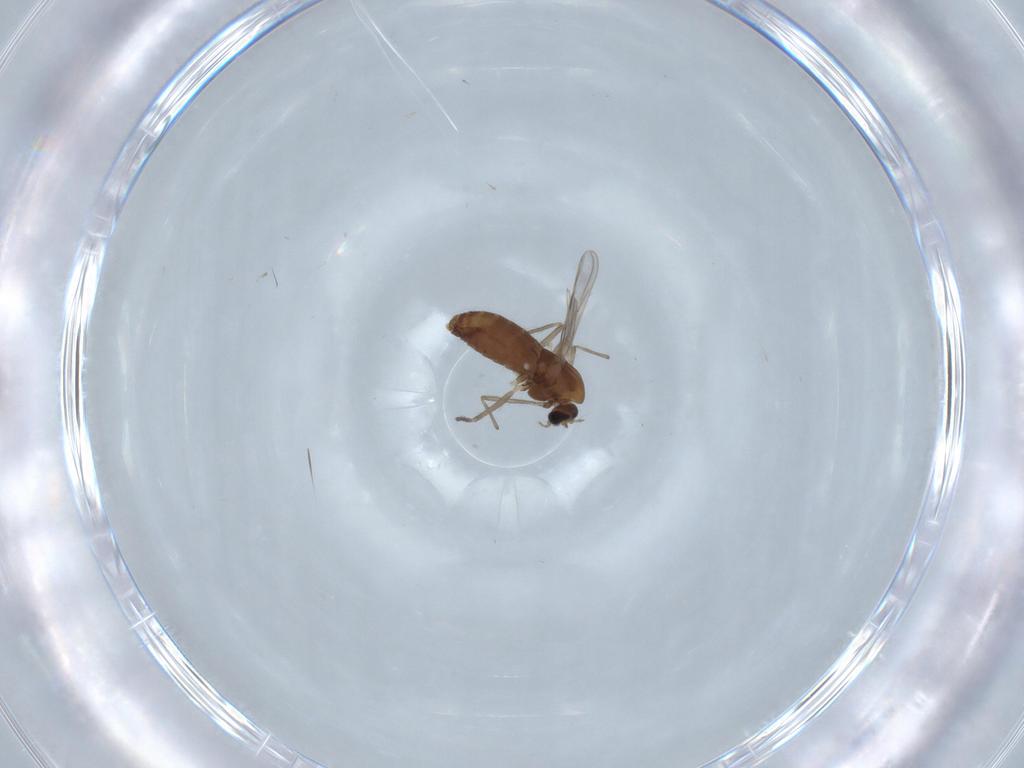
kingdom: Animalia
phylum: Arthropoda
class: Insecta
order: Diptera
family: Chironomidae
